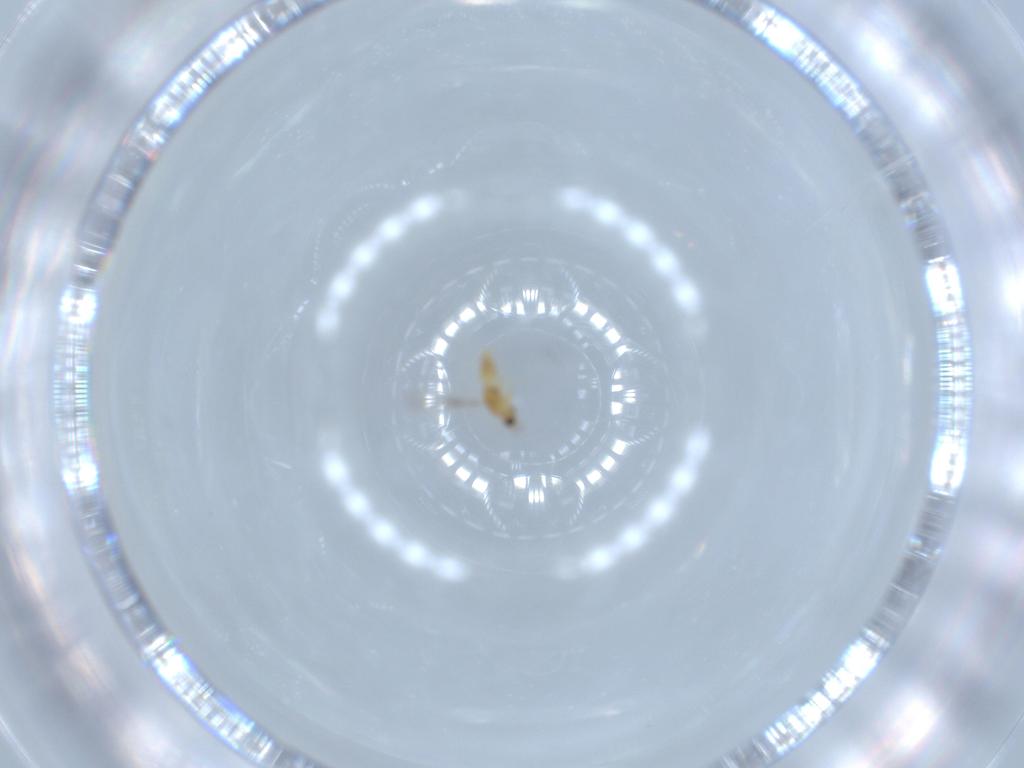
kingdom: Animalia
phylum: Arthropoda
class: Insecta
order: Hymenoptera
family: Mymaridae
